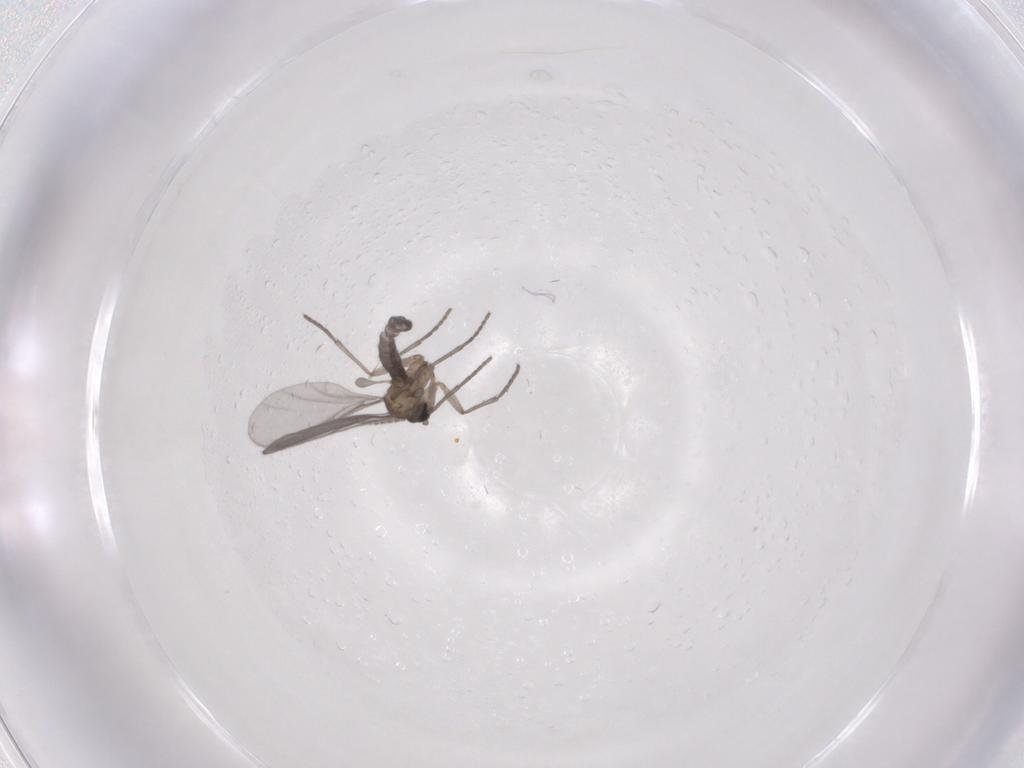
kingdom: Animalia
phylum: Arthropoda
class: Insecta
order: Diptera
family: Sciaridae
